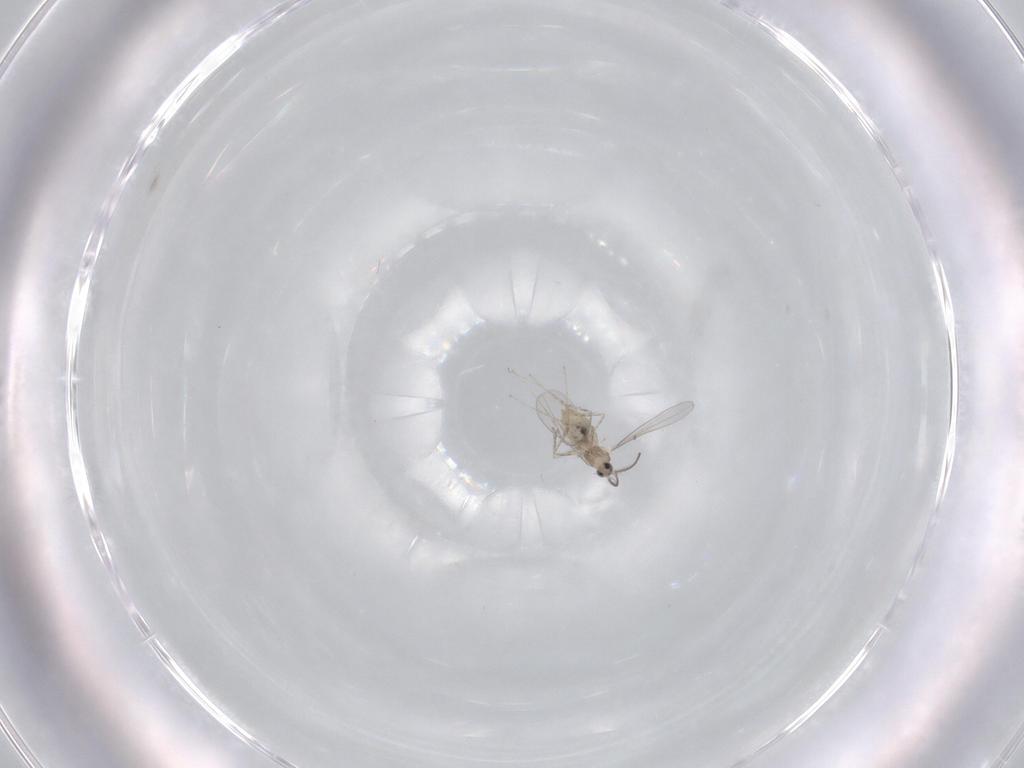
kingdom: Animalia
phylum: Arthropoda
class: Insecta
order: Diptera
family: Cecidomyiidae
